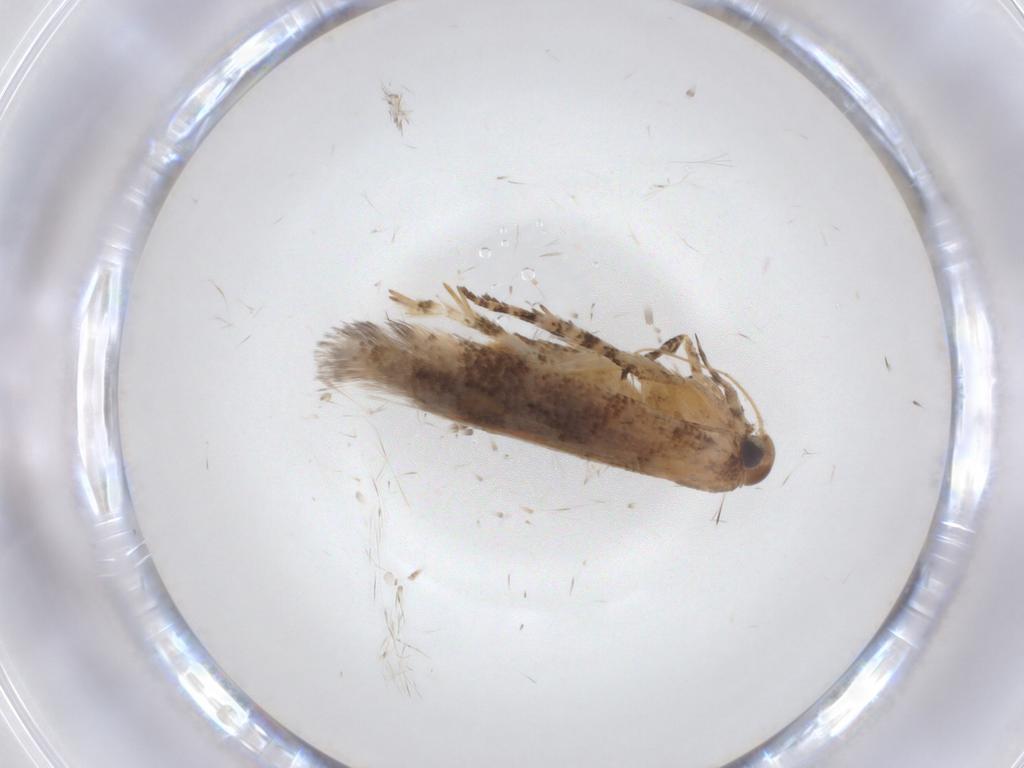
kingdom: Animalia
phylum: Arthropoda
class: Insecta
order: Lepidoptera
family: Gelechiidae
